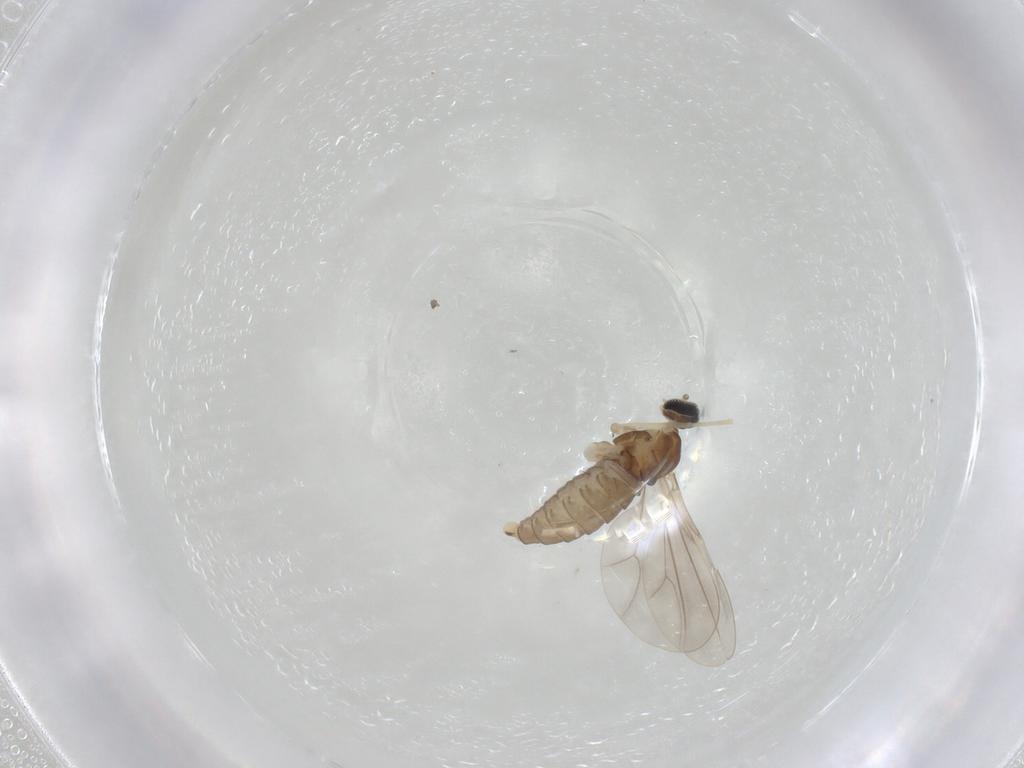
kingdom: Animalia
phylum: Arthropoda
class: Insecta
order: Diptera
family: Cecidomyiidae
